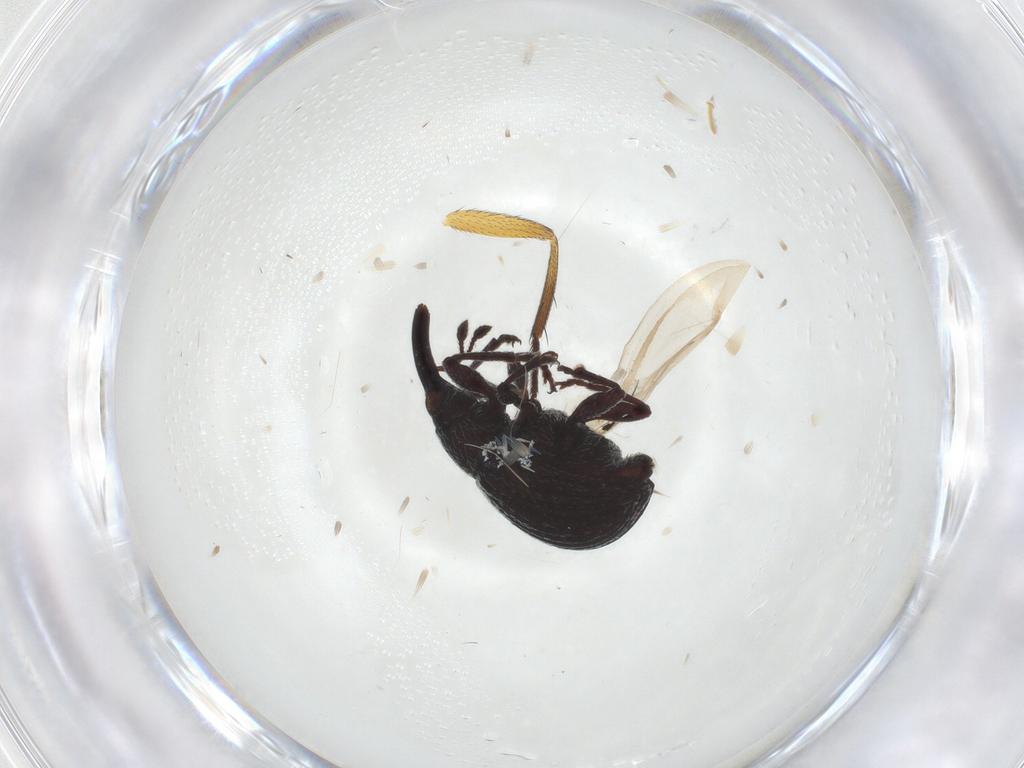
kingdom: Animalia
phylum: Arthropoda
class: Insecta
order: Coleoptera
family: Brentidae
